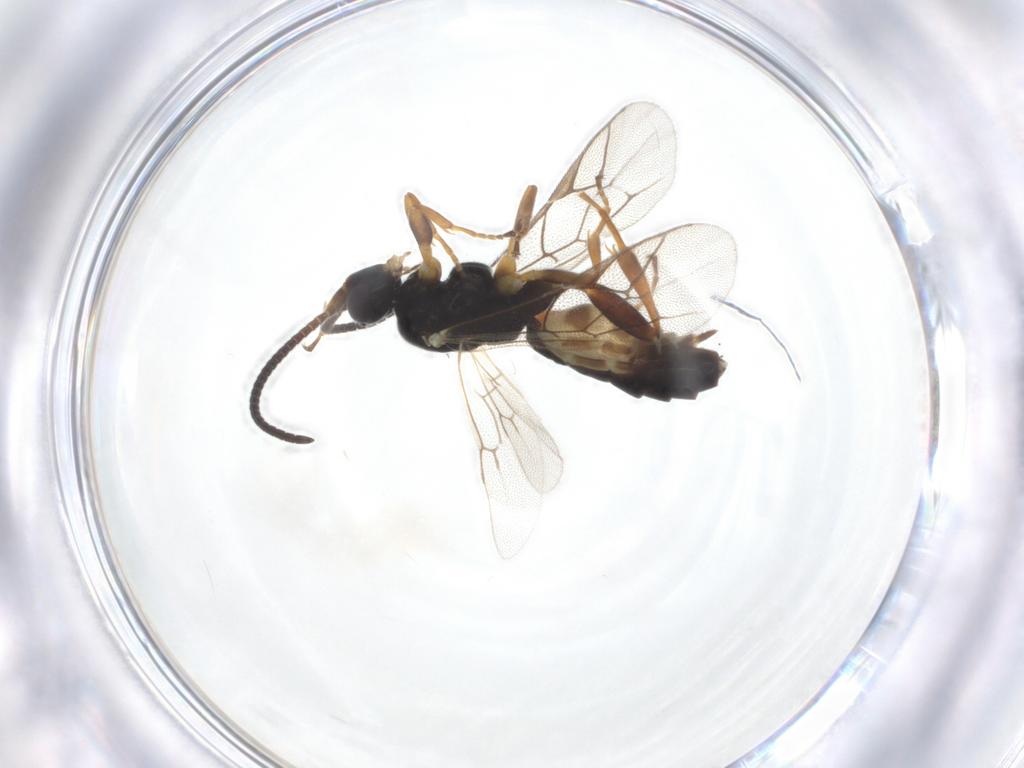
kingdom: Animalia
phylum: Arthropoda
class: Insecta
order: Hymenoptera
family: Ichneumonidae
